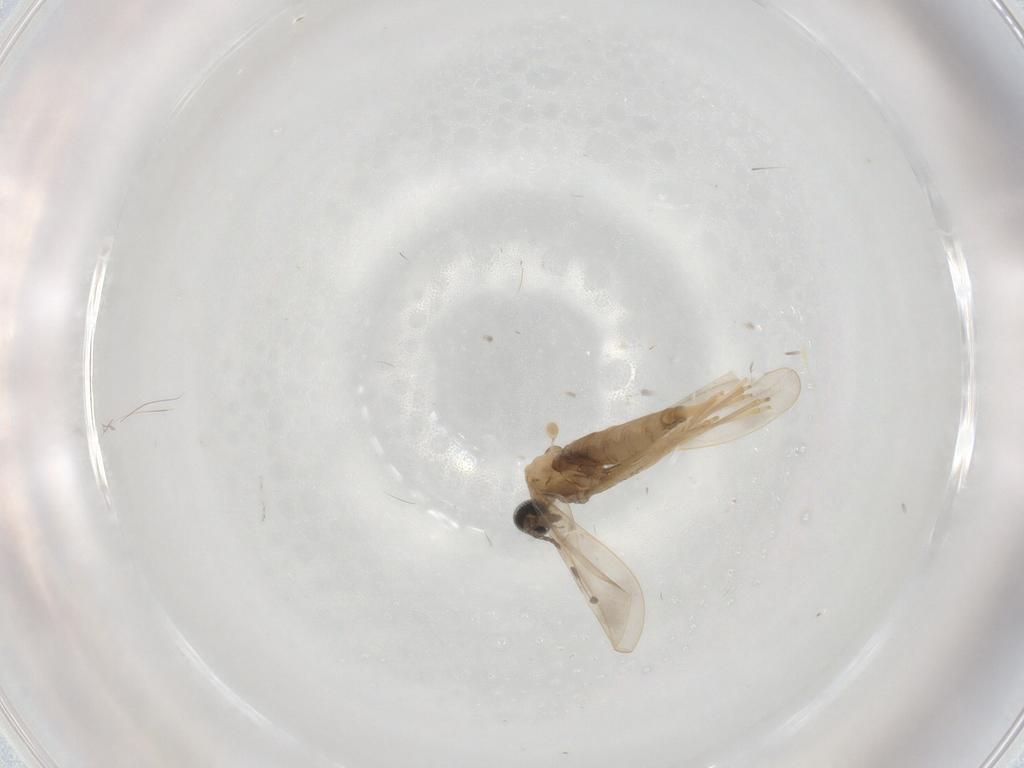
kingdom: Animalia
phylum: Arthropoda
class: Insecta
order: Diptera
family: Cecidomyiidae
